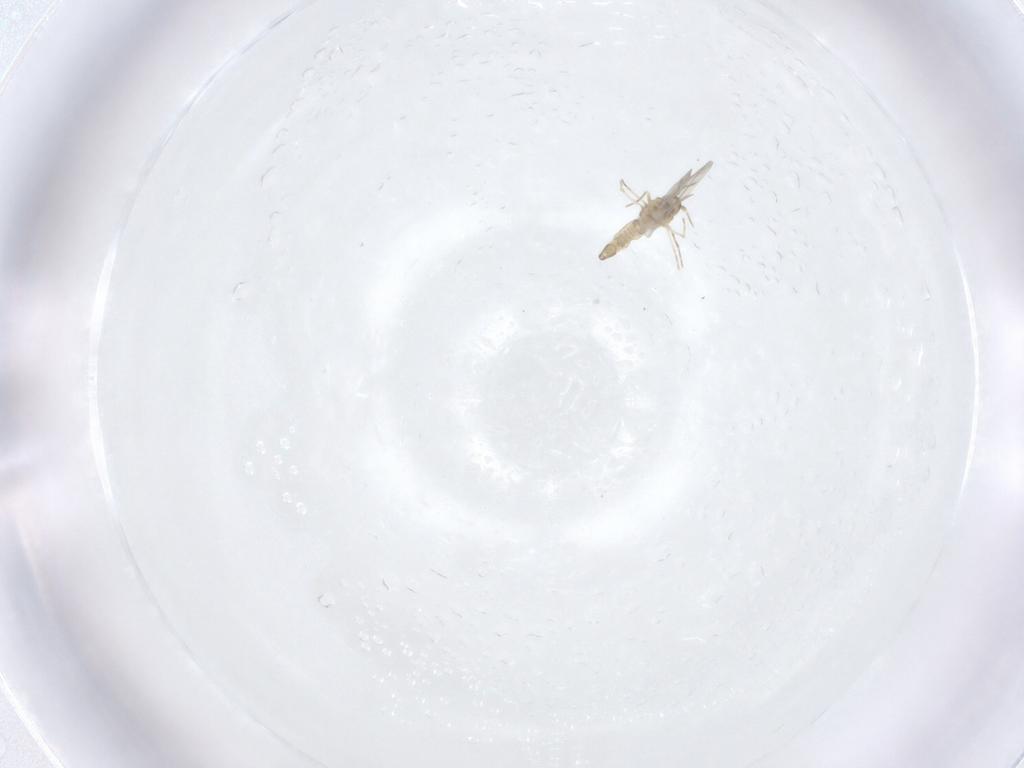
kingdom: Animalia
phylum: Arthropoda
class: Insecta
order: Hemiptera
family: Aleyrodidae
